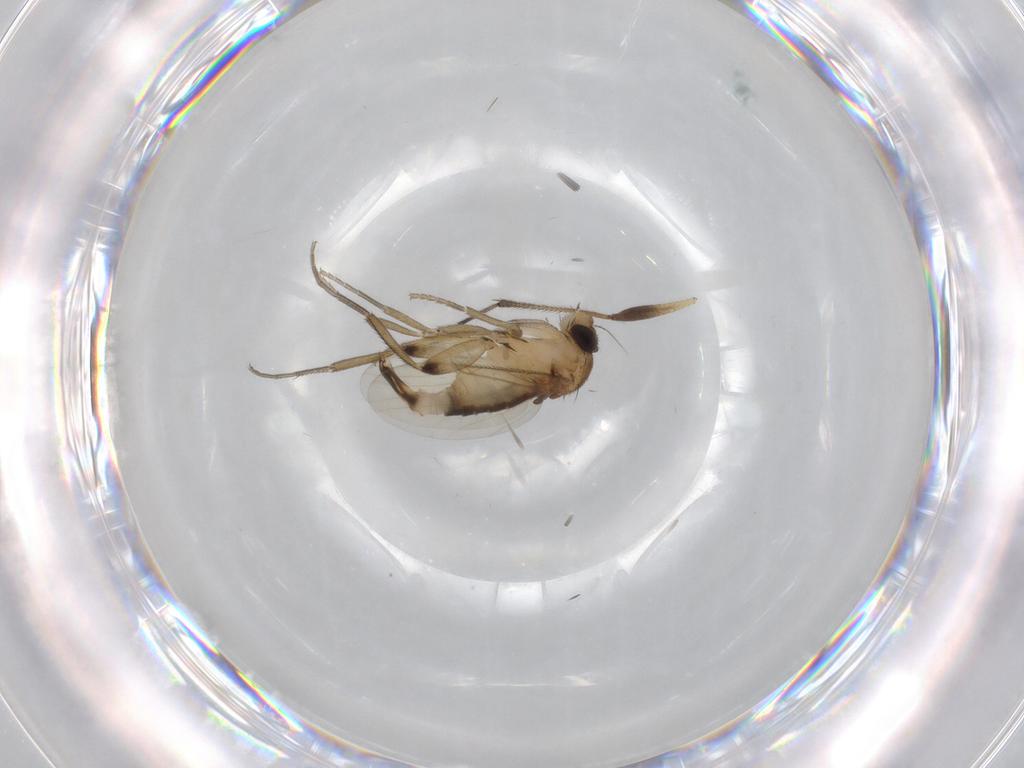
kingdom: Animalia
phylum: Arthropoda
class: Insecta
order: Diptera
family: Phoridae
